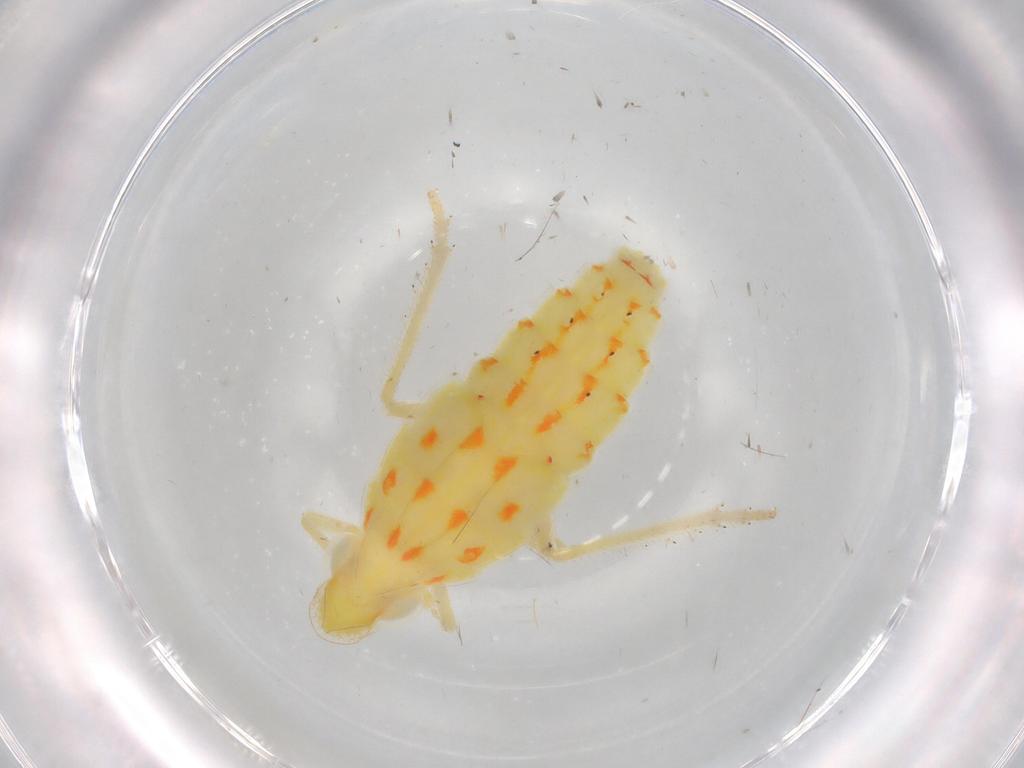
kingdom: Animalia
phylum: Arthropoda
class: Insecta
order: Hemiptera
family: Tropiduchidae
